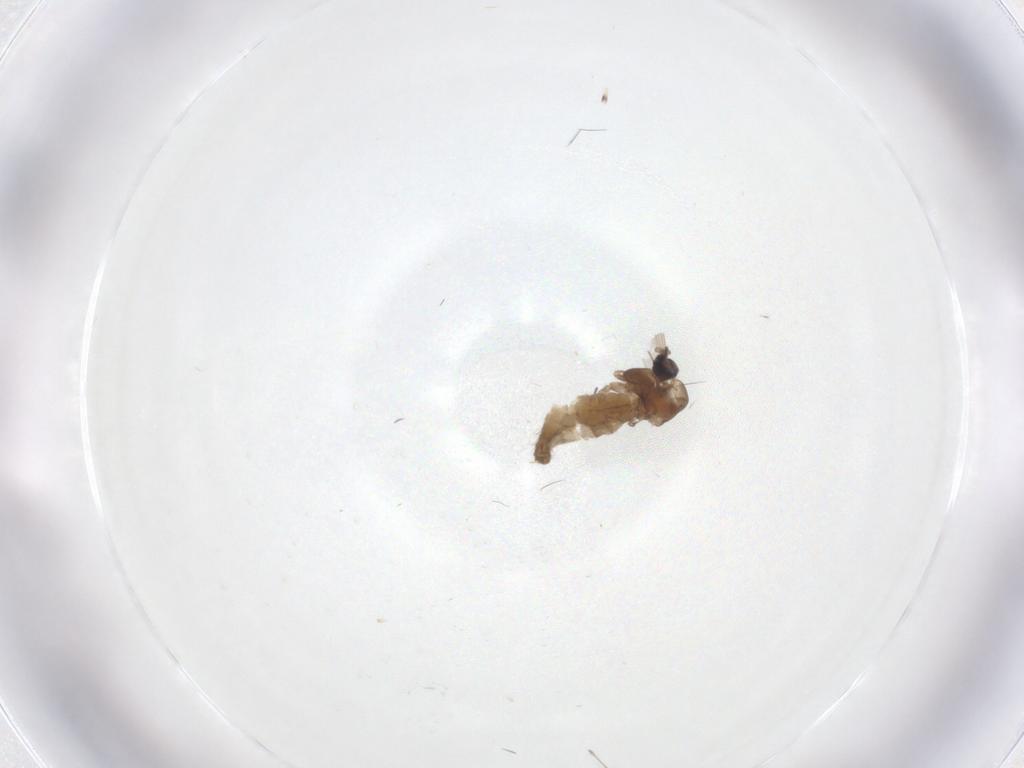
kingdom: Animalia
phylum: Arthropoda
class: Insecta
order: Diptera
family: Chironomidae
